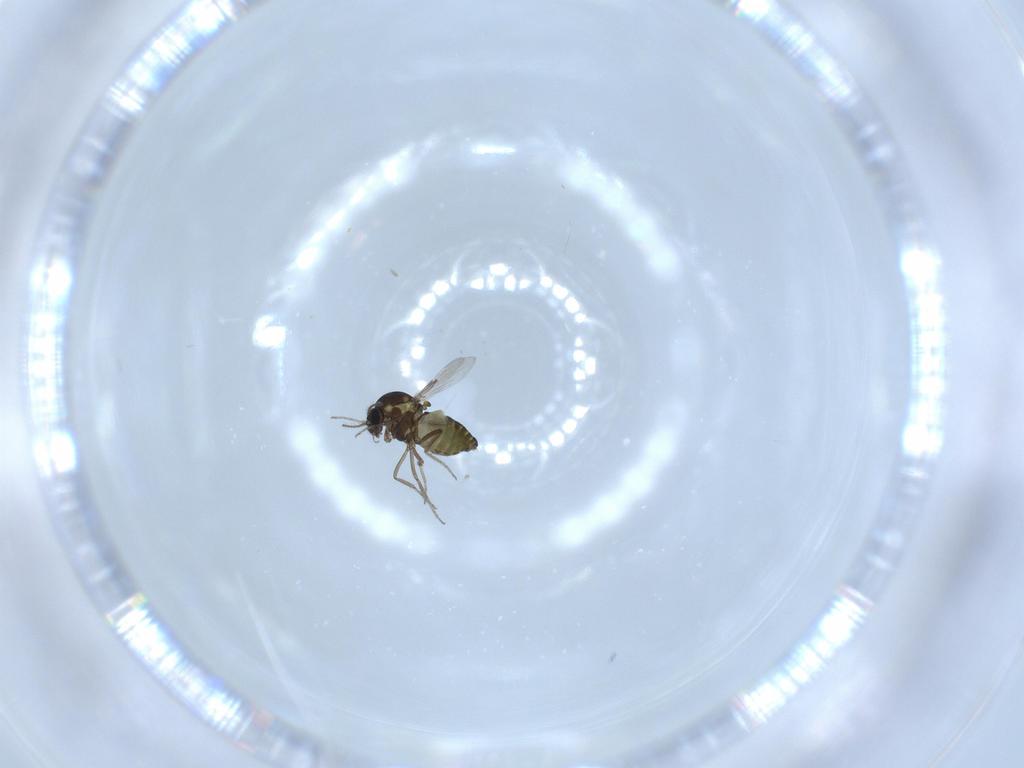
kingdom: Animalia
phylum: Arthropoda
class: Insecta
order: Diptera
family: Ceratopogonidae
